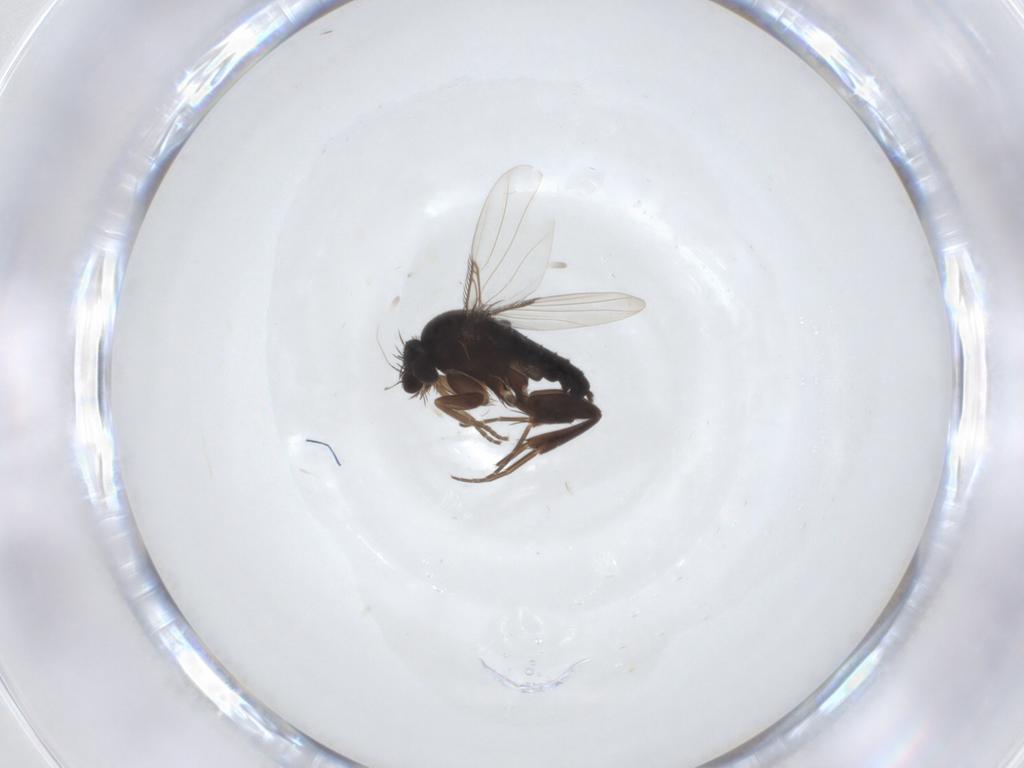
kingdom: Animalia
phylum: Arthropoda
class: Insecta
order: Diptera
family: Phoridae
